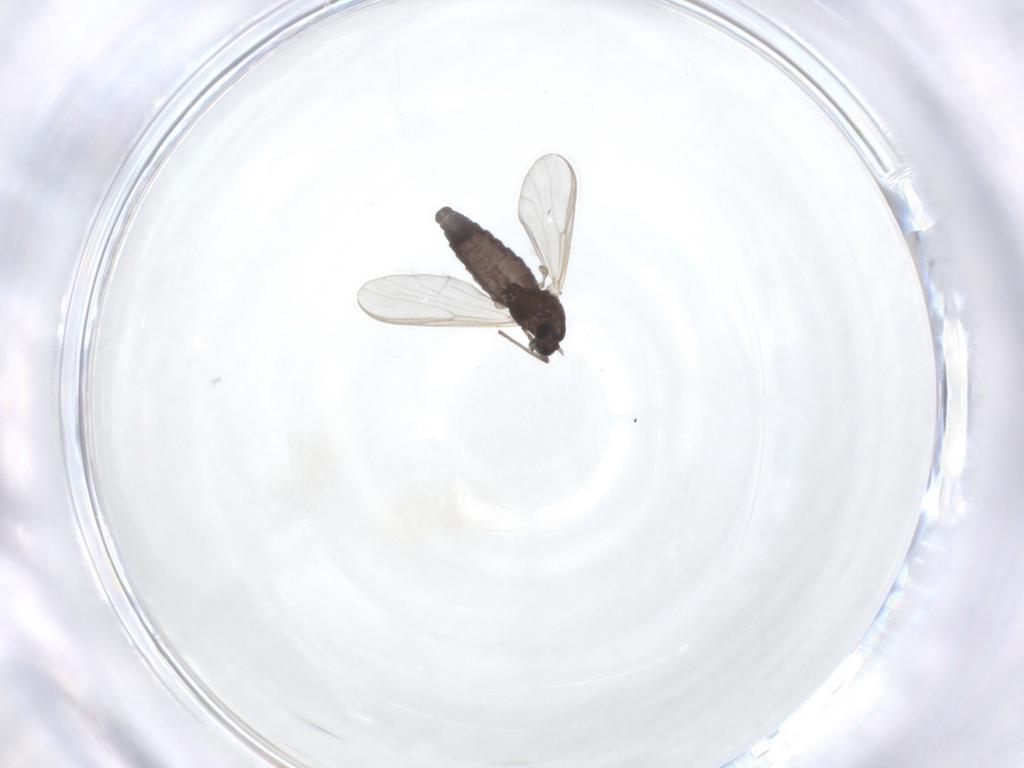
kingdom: Animalia
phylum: Arthropoda
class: Insecta
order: Diptera
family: Chironomidae
